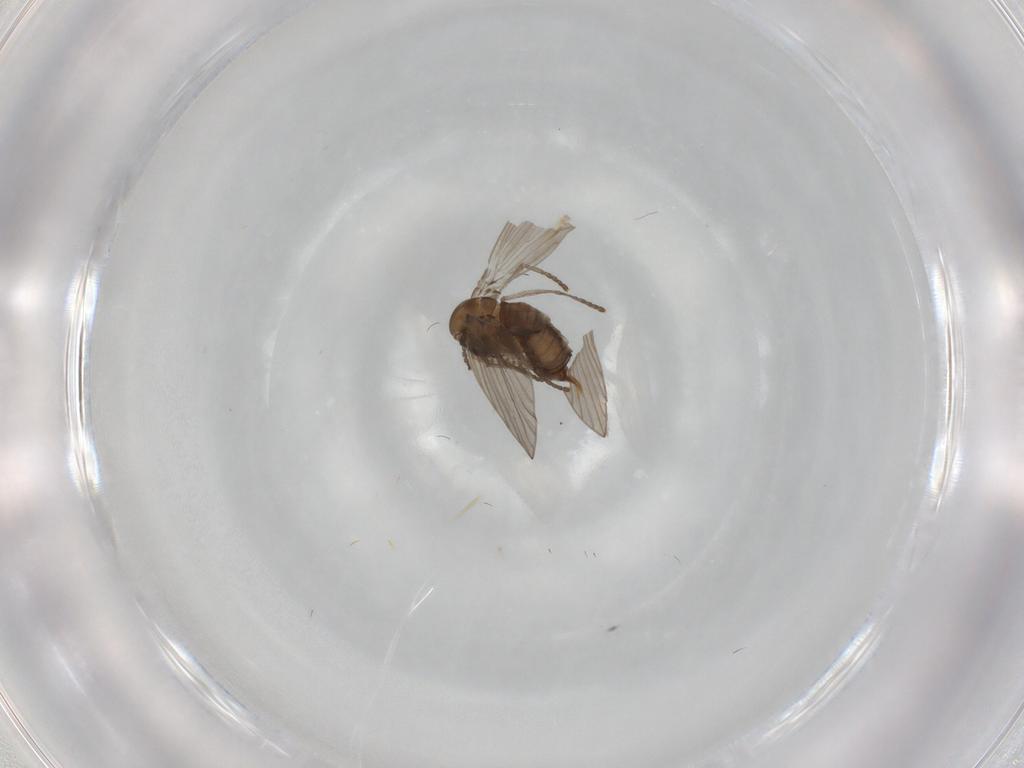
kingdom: Animalia
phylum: Arthropoda
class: Insecta
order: Diptera
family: Psychodidae
